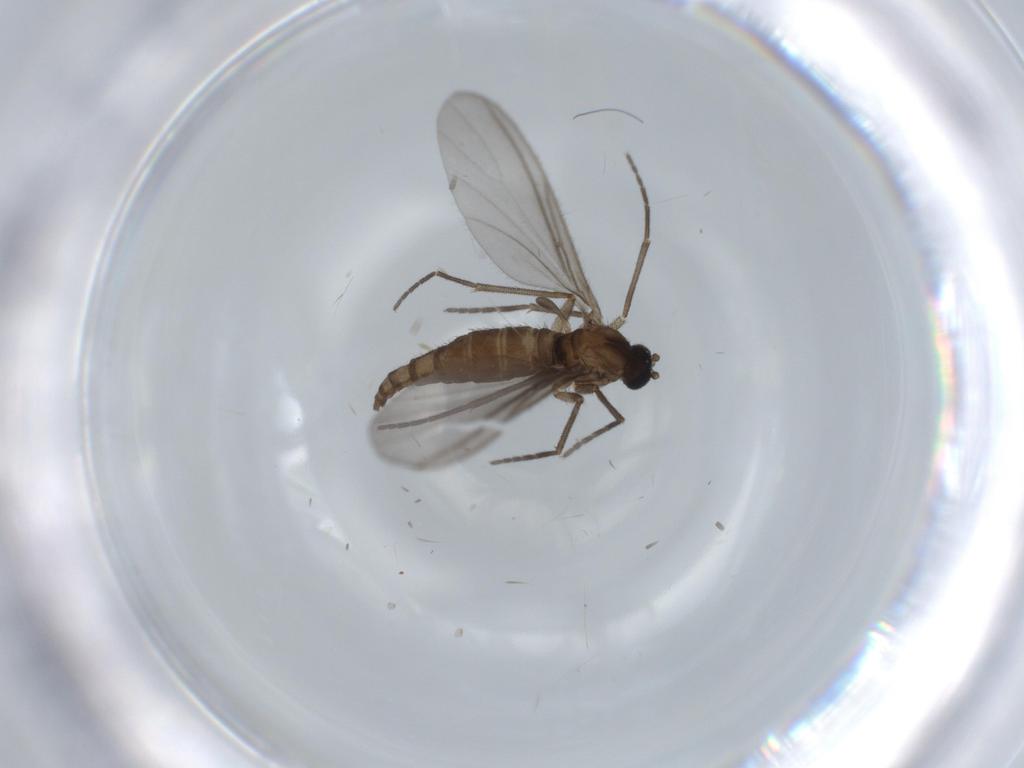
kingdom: Animalia
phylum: Arthropoda
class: Insecta
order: Diptera
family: Sciaridae
